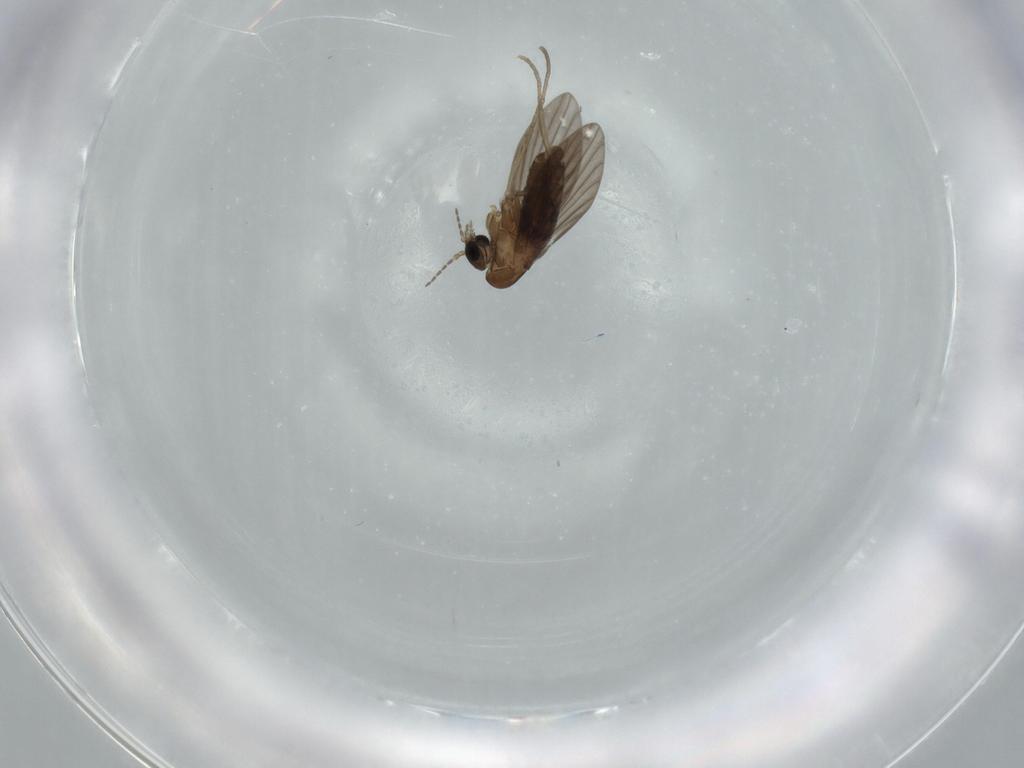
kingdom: Animalia
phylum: Arthropoda
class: Insecta
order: Diptera
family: Psychodidae
